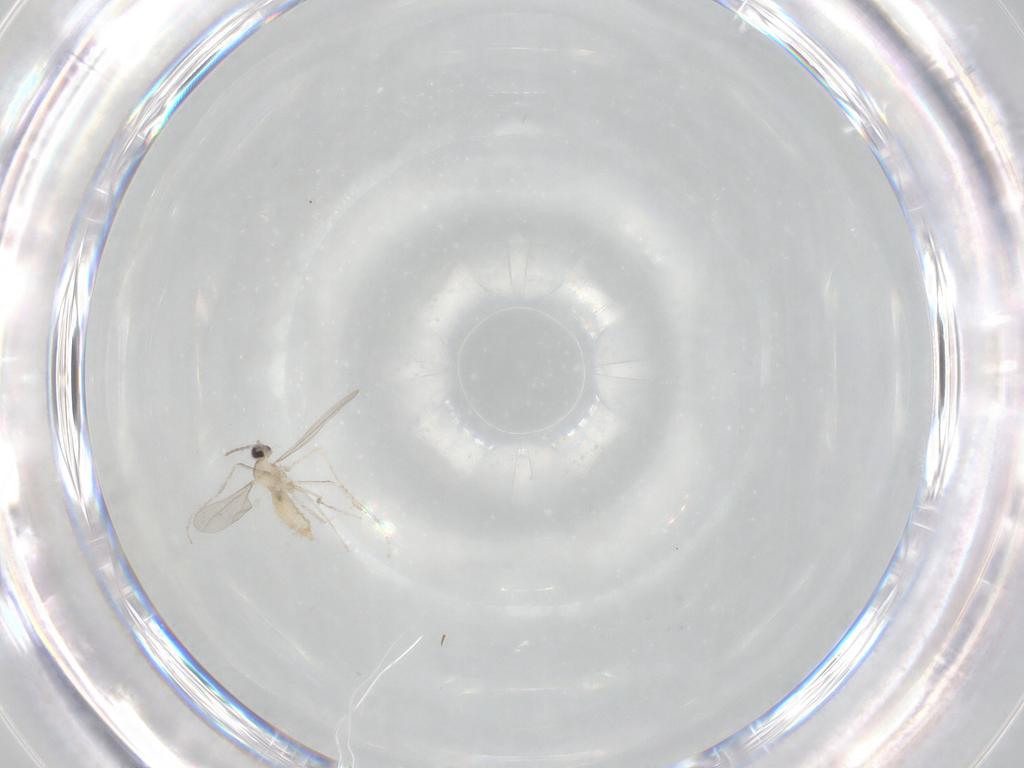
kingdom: Animalia
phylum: Arthropoda
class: Insecta
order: Diptera
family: Cecidomyiidae
